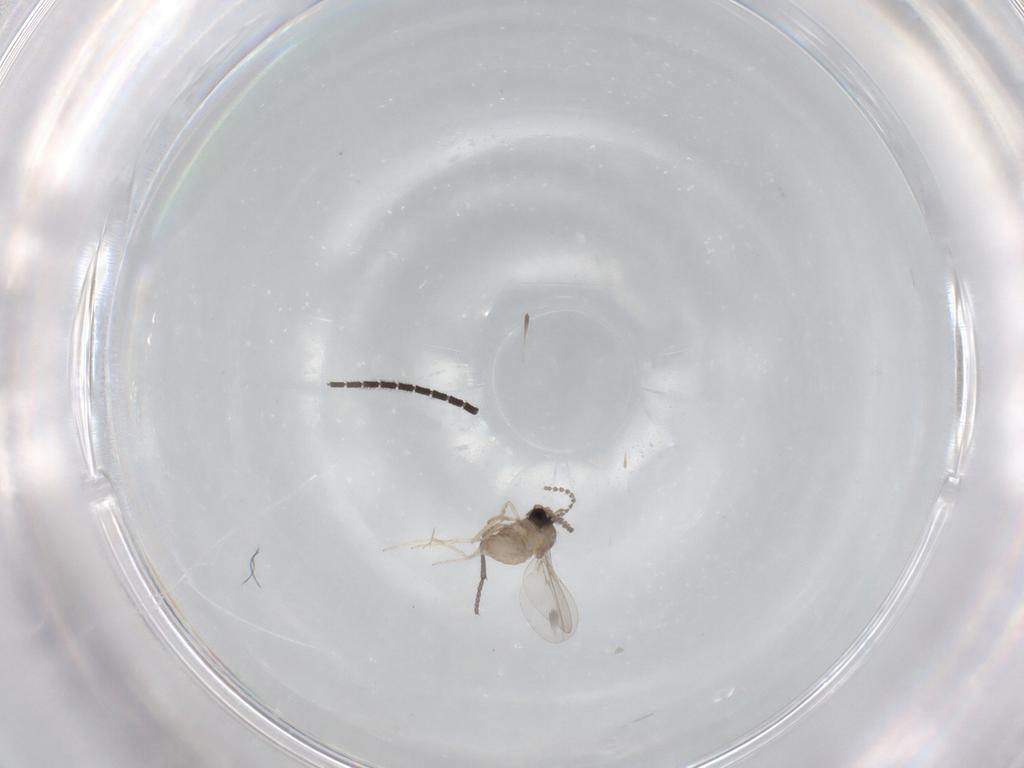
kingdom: Animalia
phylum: Arthropoda
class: Insecta
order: Diptera
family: Cecidomyiidae
